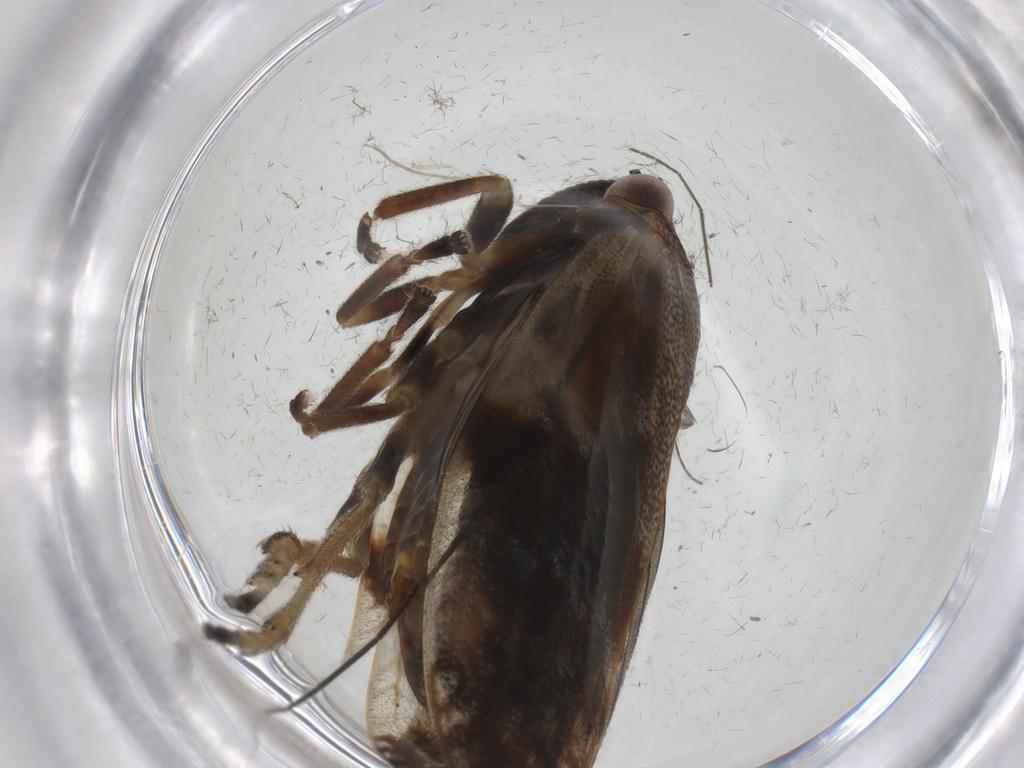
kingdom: Animalia
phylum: Arthropoda
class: Insecta
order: Hemiptera
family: Aphrophoridae
